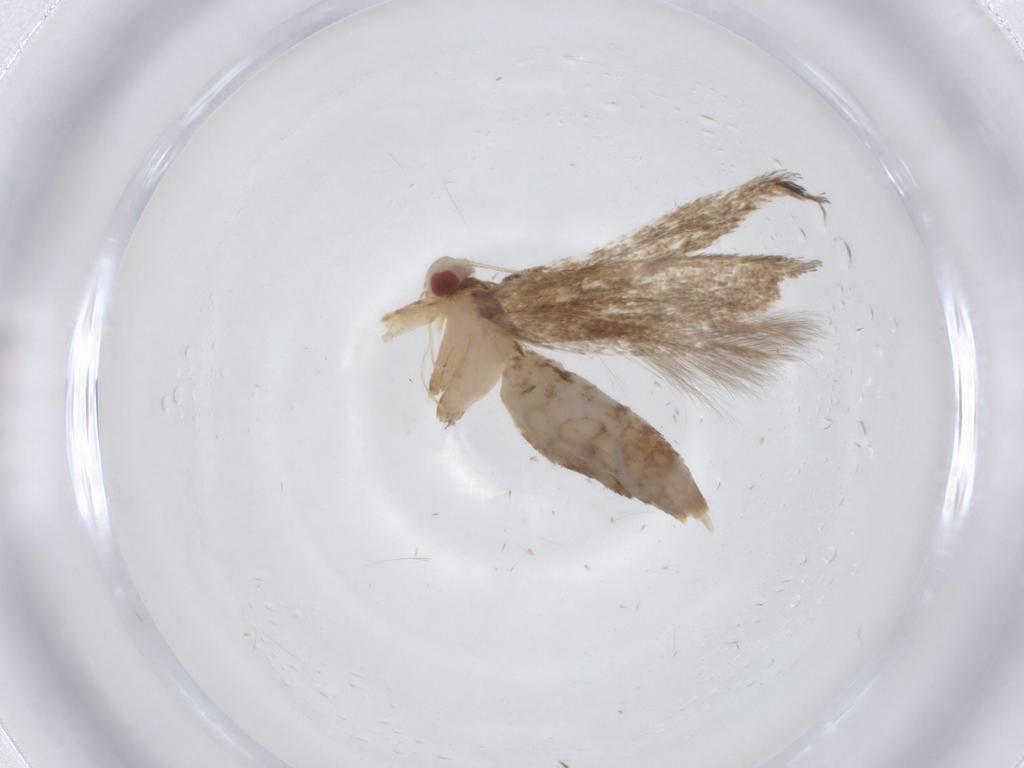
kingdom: Animalia
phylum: Arthropoda
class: Insecta
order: Lepidoptera
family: Cosmopterigidae
